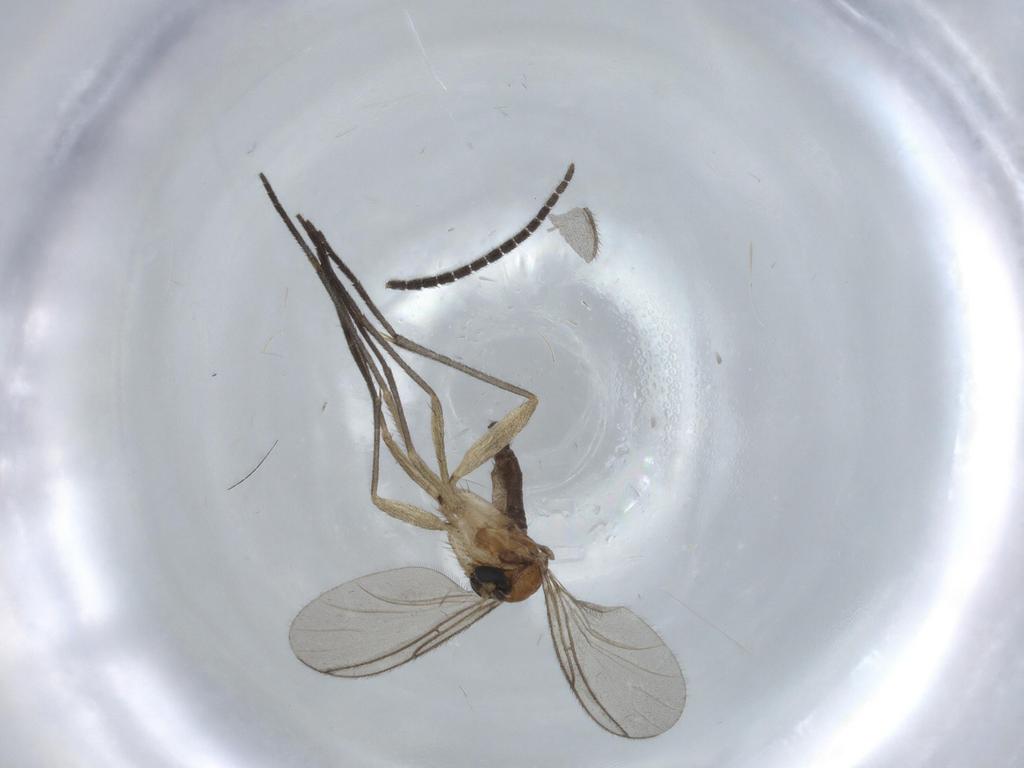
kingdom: Animalia
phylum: Arthropoda
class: Insecta
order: Diptera
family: Sciaridae
